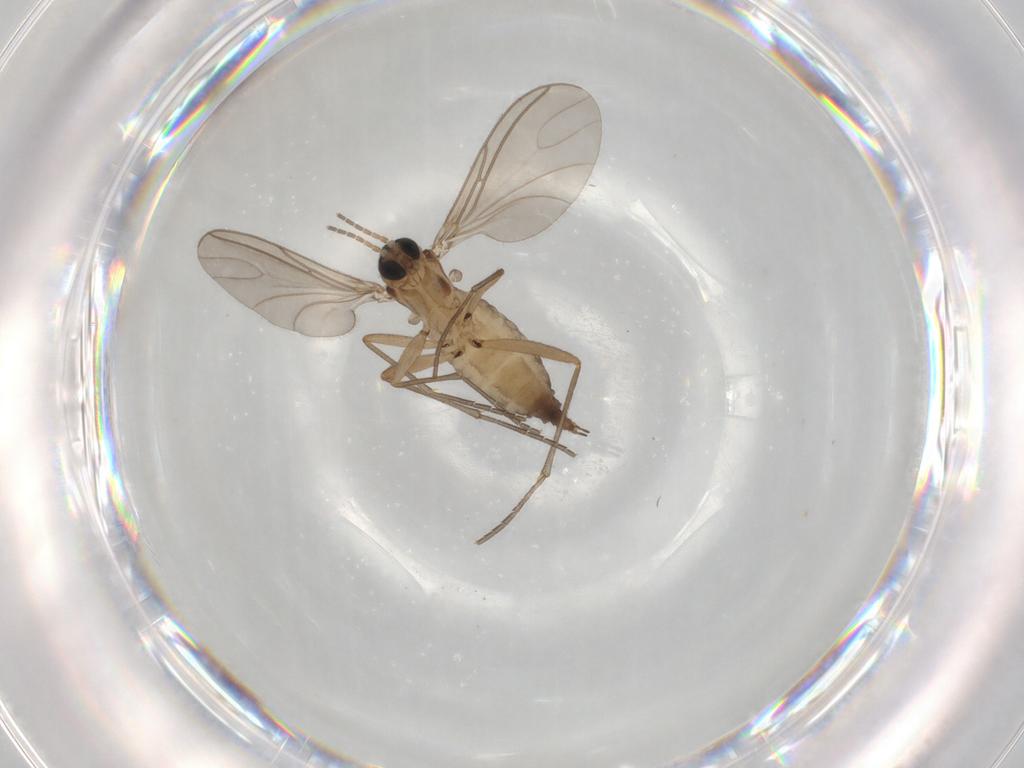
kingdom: Animalia
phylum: Arthropoda
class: Insecta
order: Diptera
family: Sciaridae
